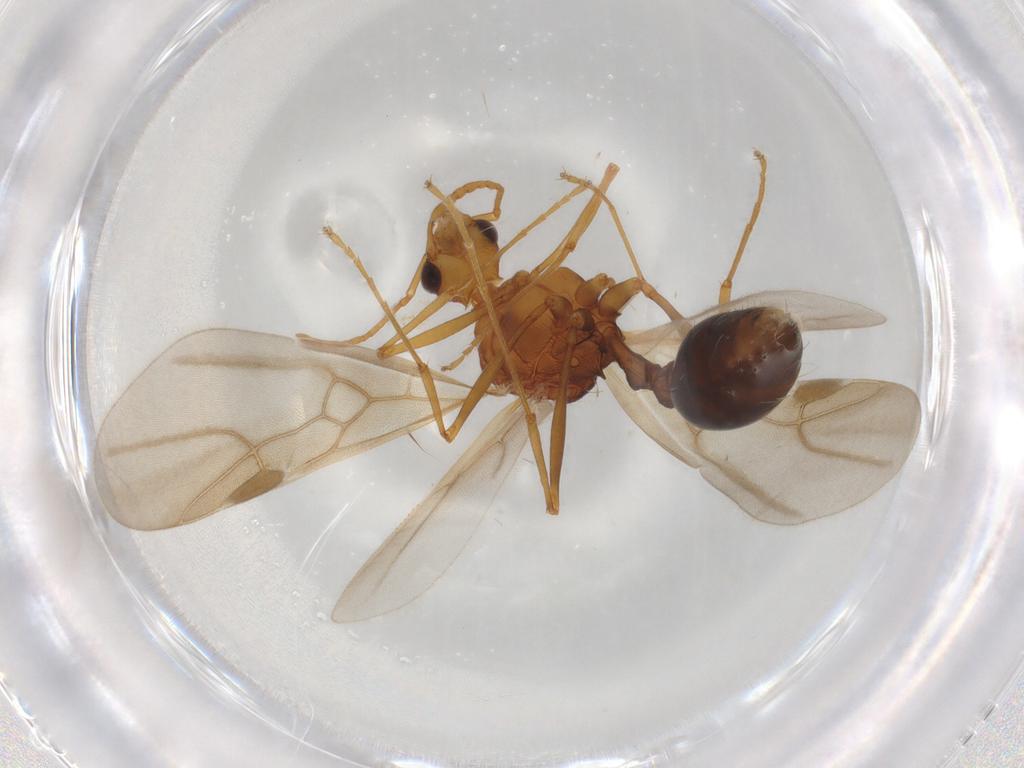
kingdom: Animalia
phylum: Arthropoda
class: Insecta
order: Hymenoptera
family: Formicidae
